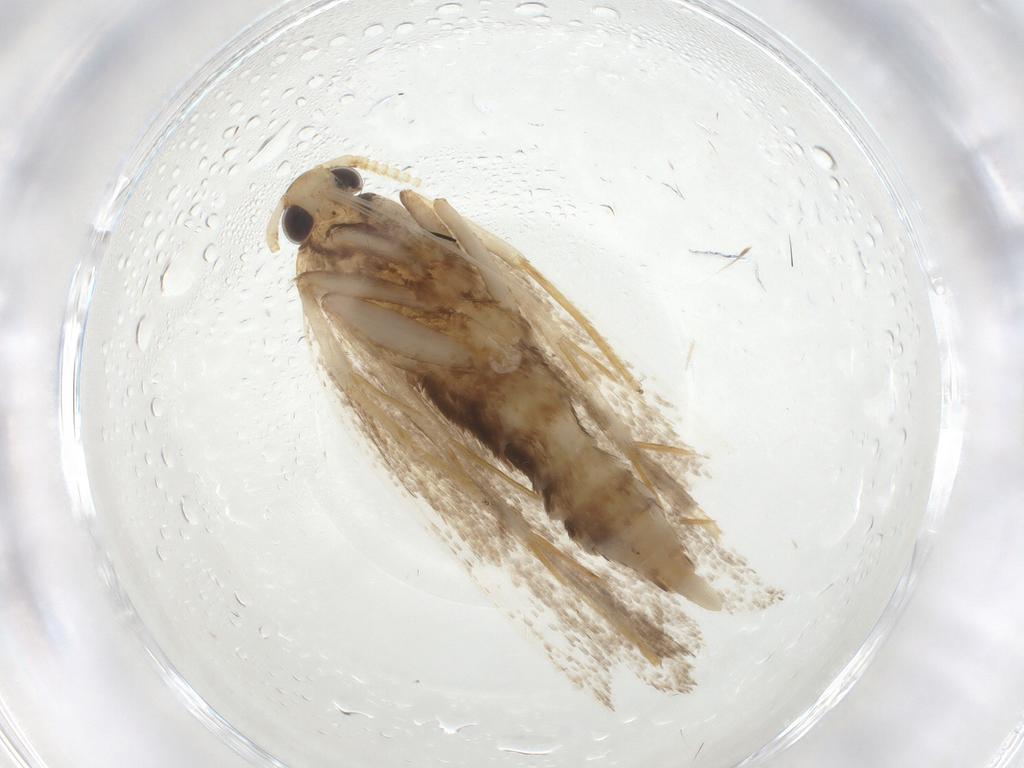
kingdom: Animalia
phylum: Arthropoda
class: Insecta
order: Lepidoptera
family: Lecithoceridae
